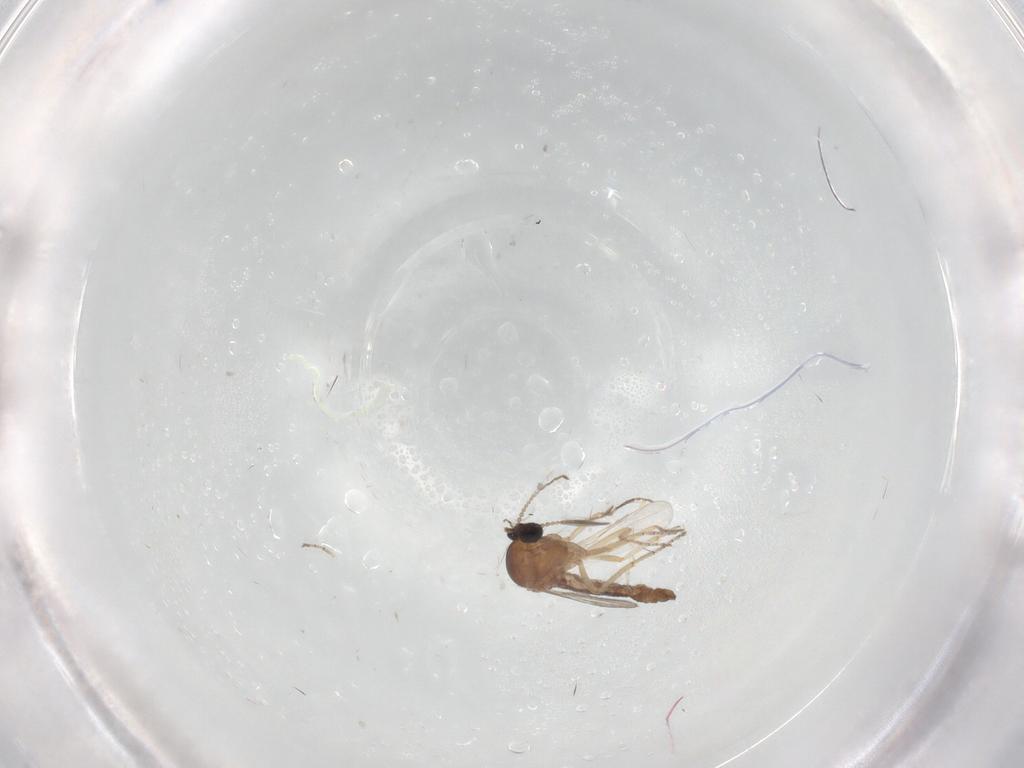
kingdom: Animalia
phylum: Arthropoda
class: Insecta
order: Diptera
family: Ceratopogonidae
